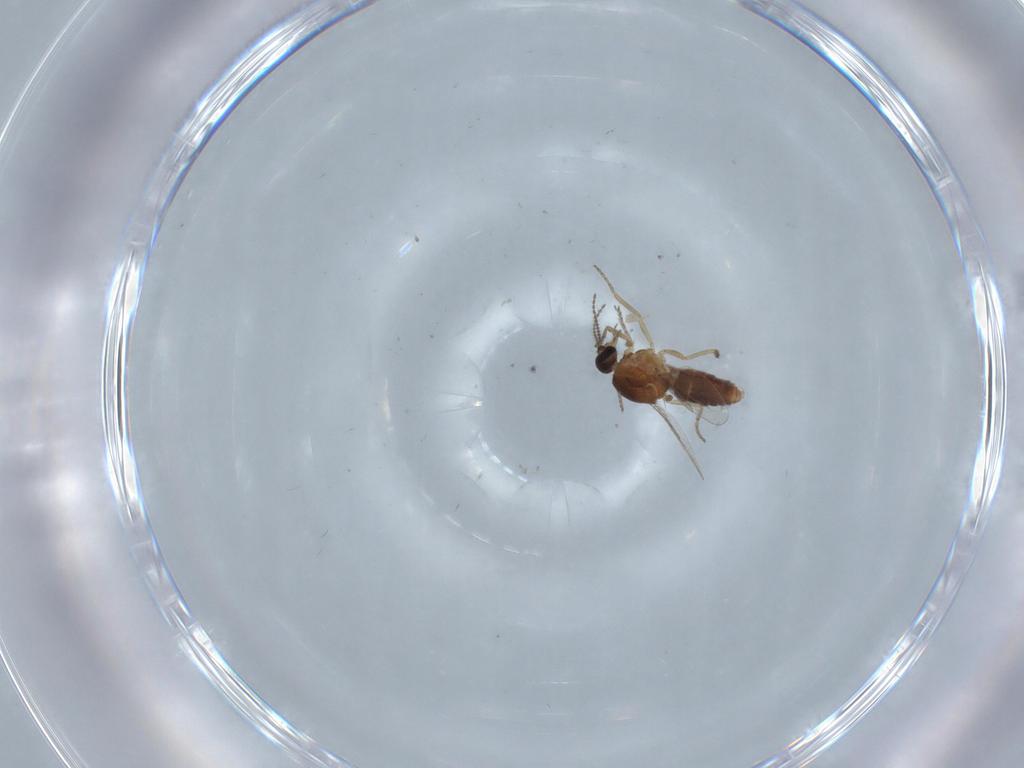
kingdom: Animalia
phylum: Arthropoda
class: Insecta
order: Diptera
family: Ceratopogonidae
